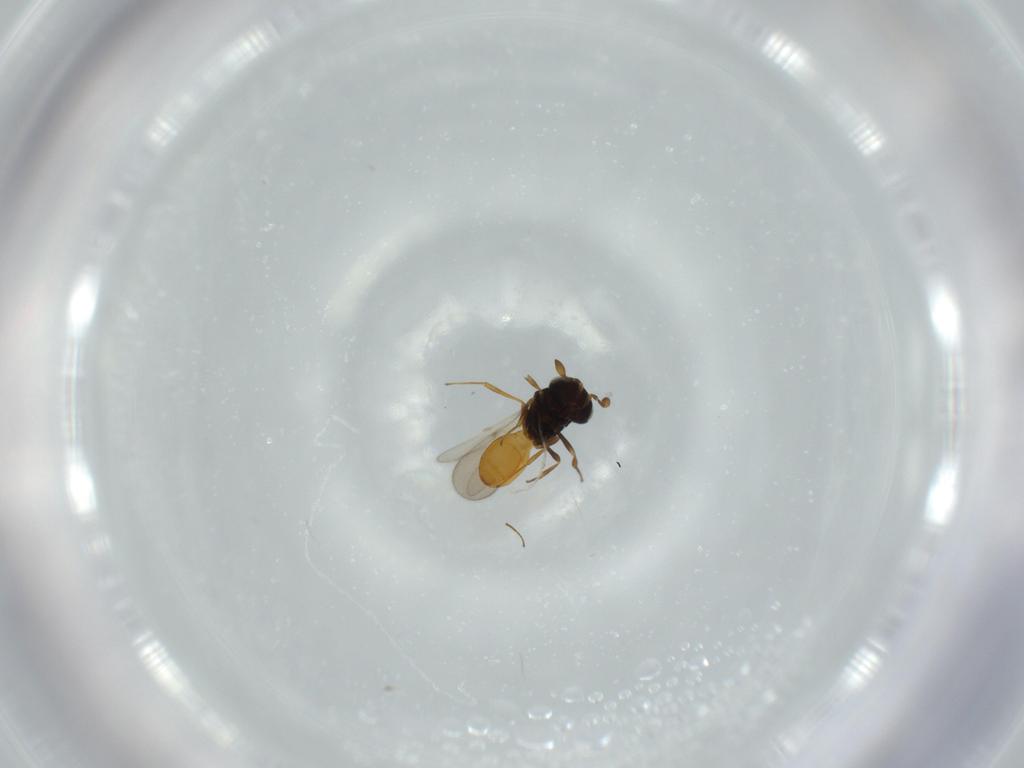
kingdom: Animalia
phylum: Arthropoda
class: Insecta
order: Hymenoptera
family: Scelionidae
